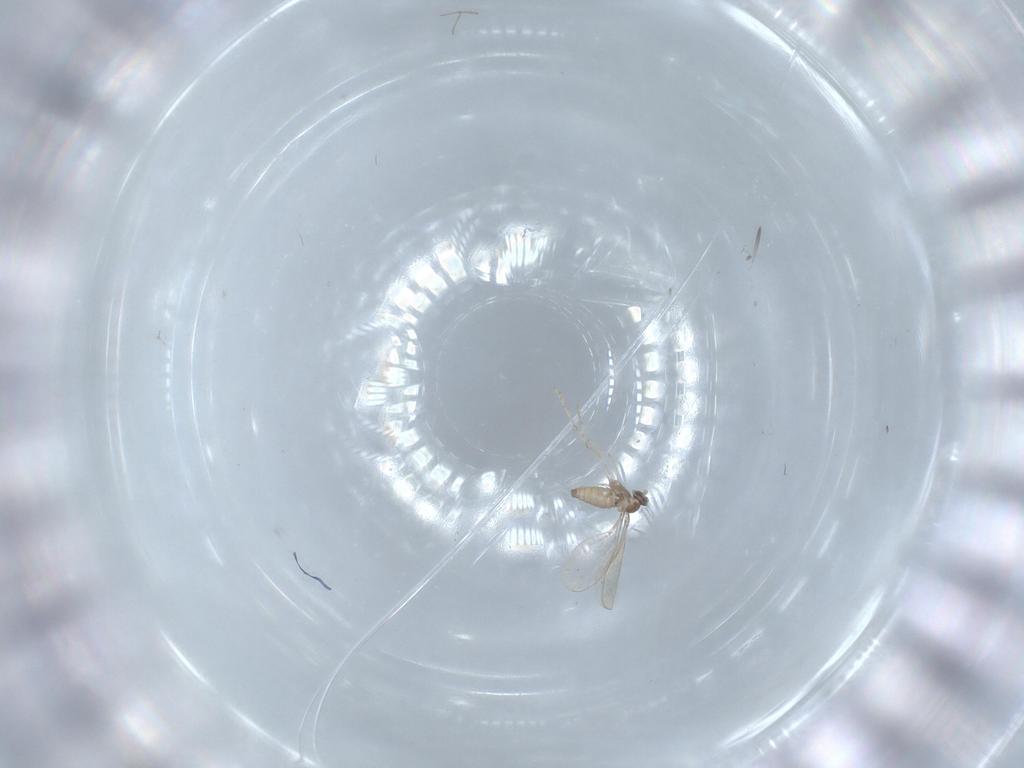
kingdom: Animalia
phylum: Arthropoda
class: Insecta
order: Diptera
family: Cecidomyiidae
